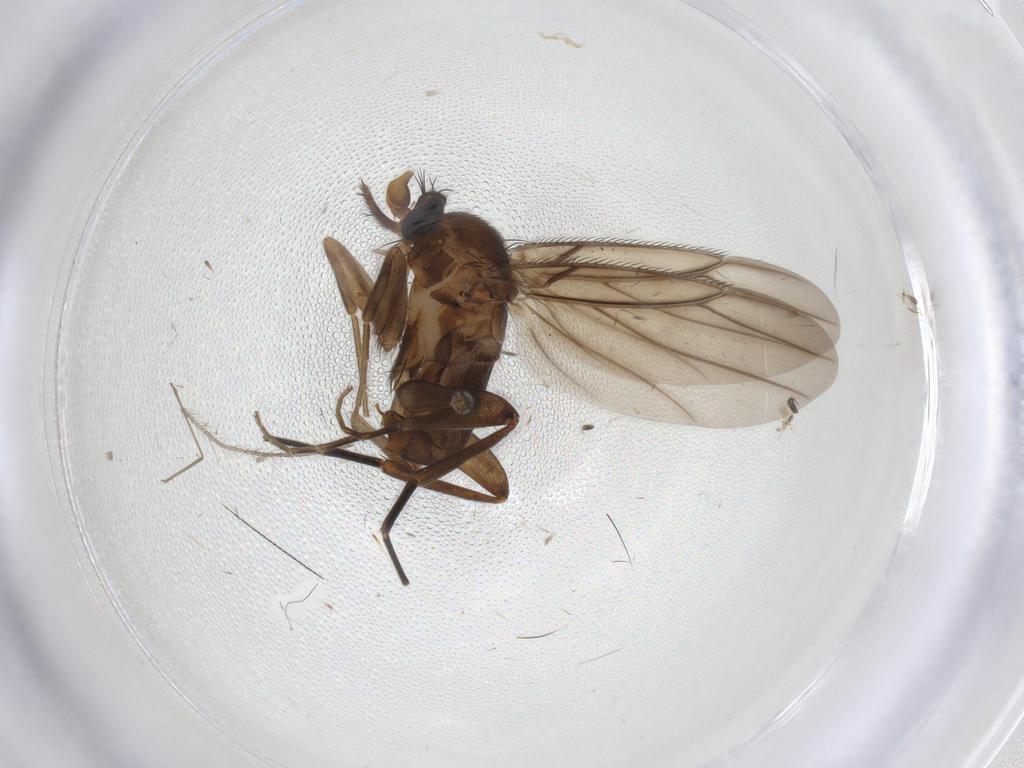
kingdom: Animalia
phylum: Arthropoda
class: Insecta
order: Diptera
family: Phoridae
